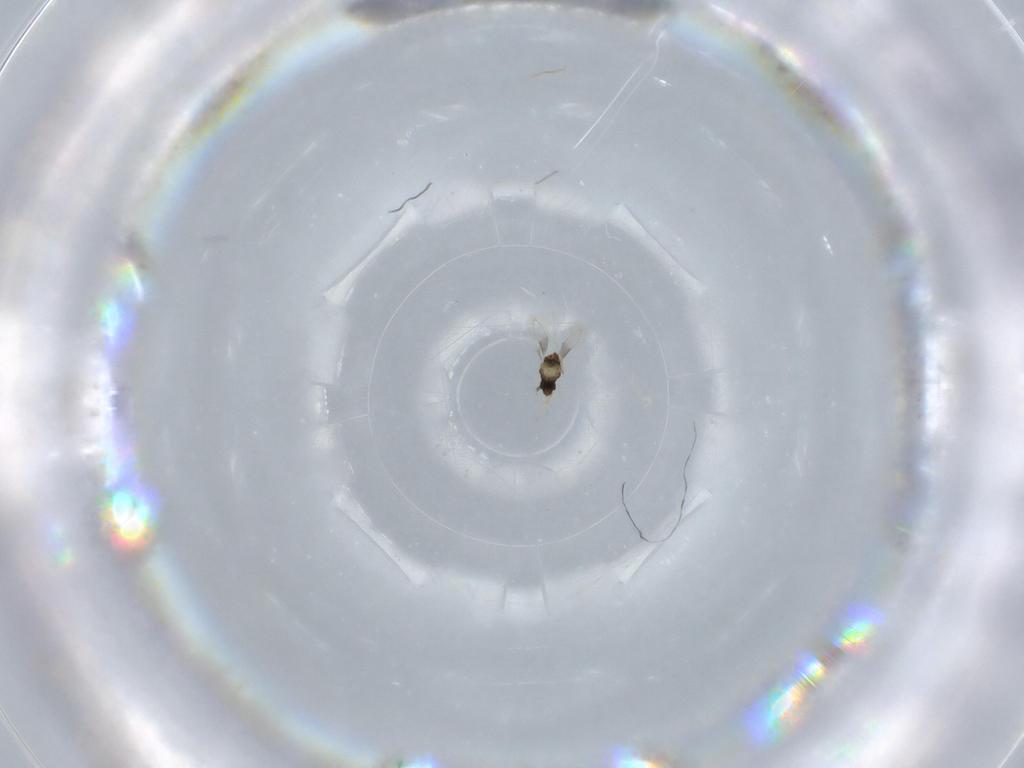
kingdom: Animalia
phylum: Arthropoda
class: Insecta
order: Hymenoptera
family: Aphelinidae
